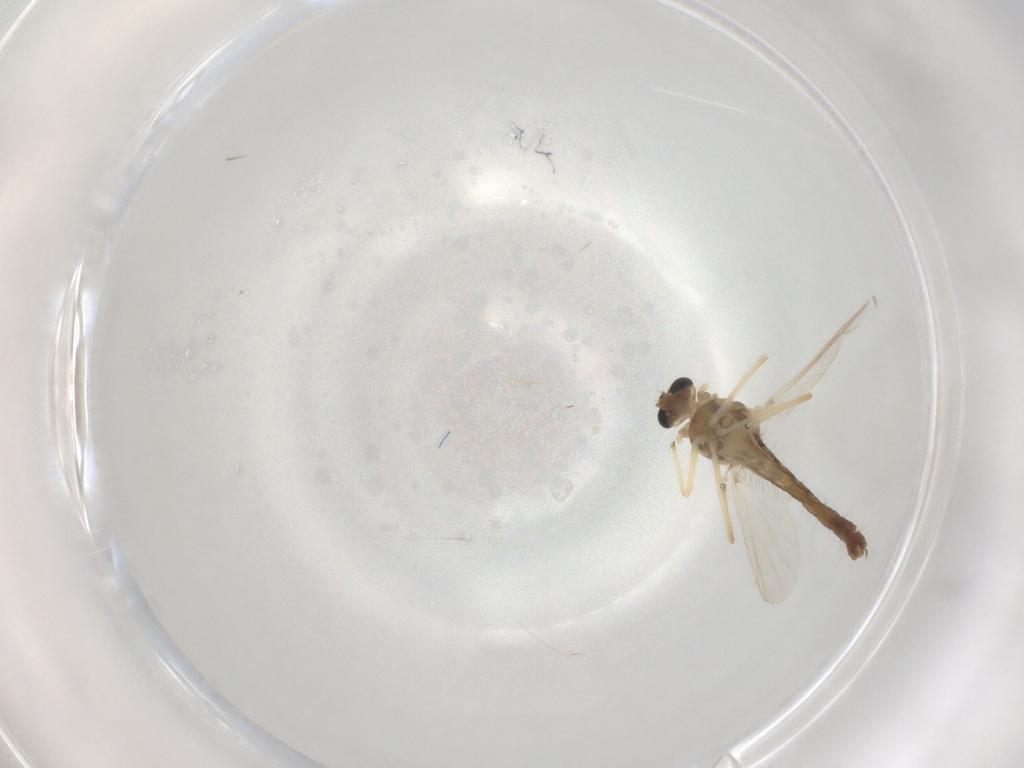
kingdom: Animalia
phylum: Arthropoda
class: Insecta
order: Diptera
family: Chironomidae
